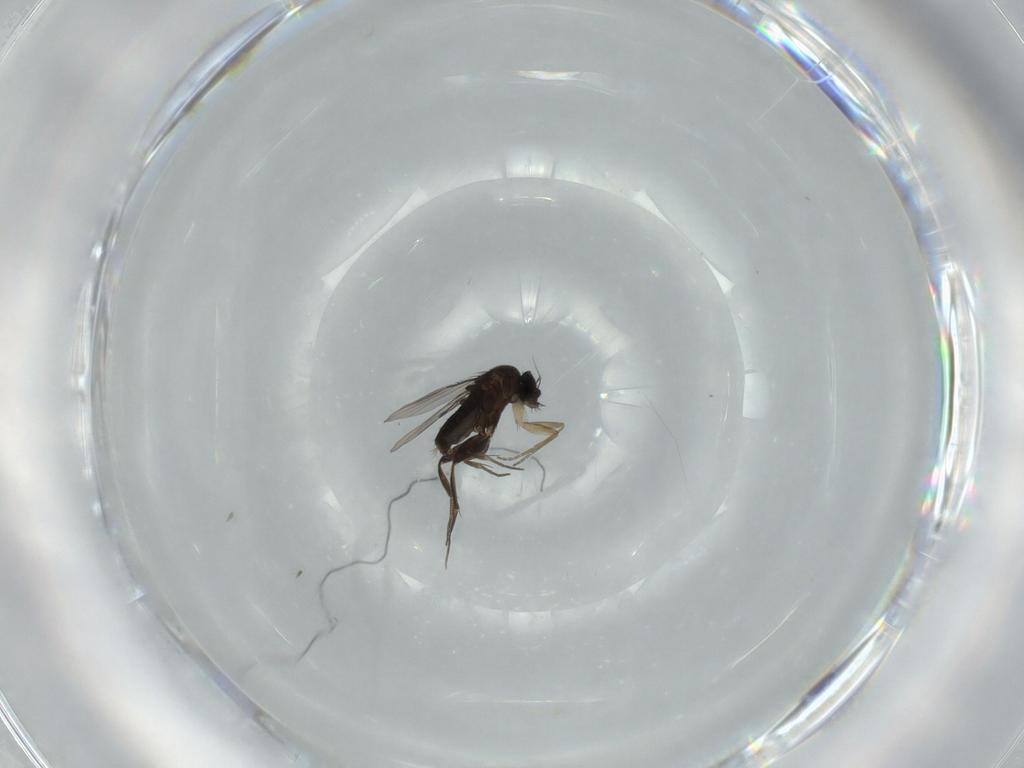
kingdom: Animalia
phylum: Arthropoda
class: Insecta
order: Diptera
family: Phoridae
